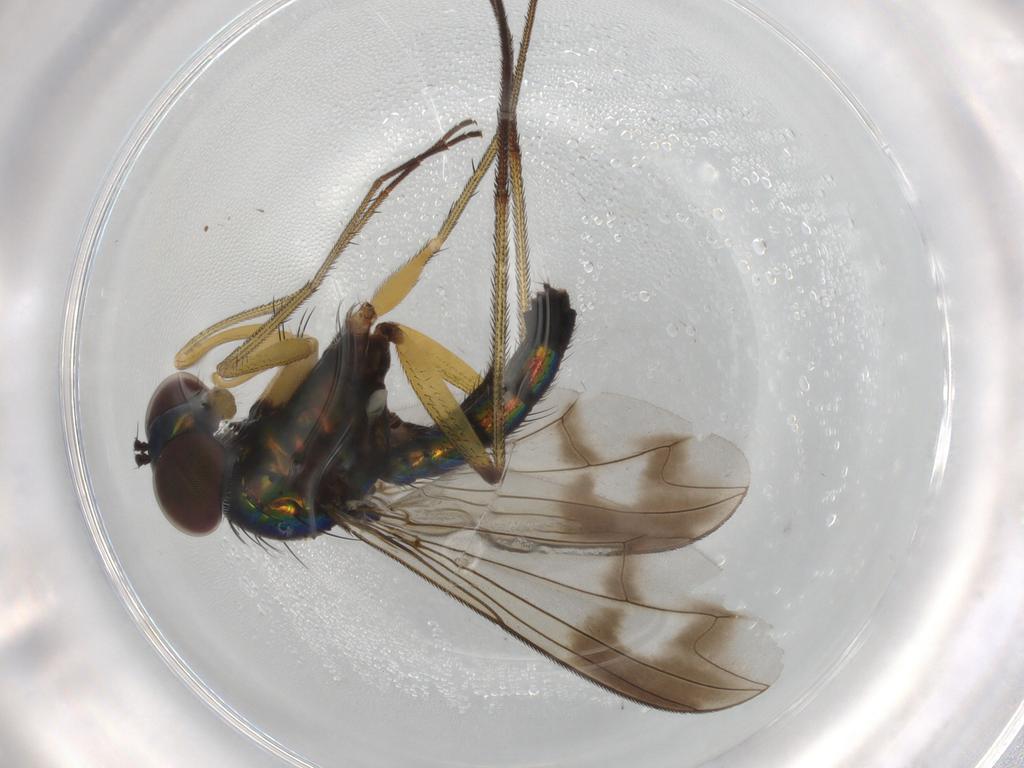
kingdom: Animalia
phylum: Arthropoda
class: Insecta
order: Diptera
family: Dolichopodidae
